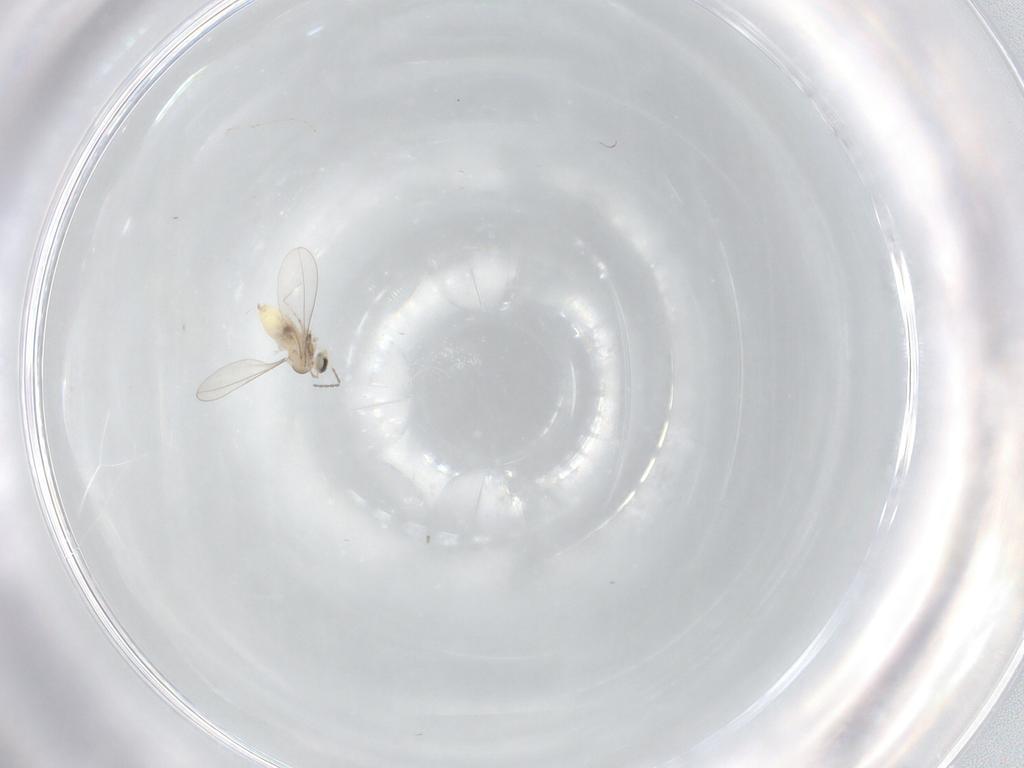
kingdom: Animalia
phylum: Arthropoda
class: Insecta
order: Diptera
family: Cecidomyiidae
